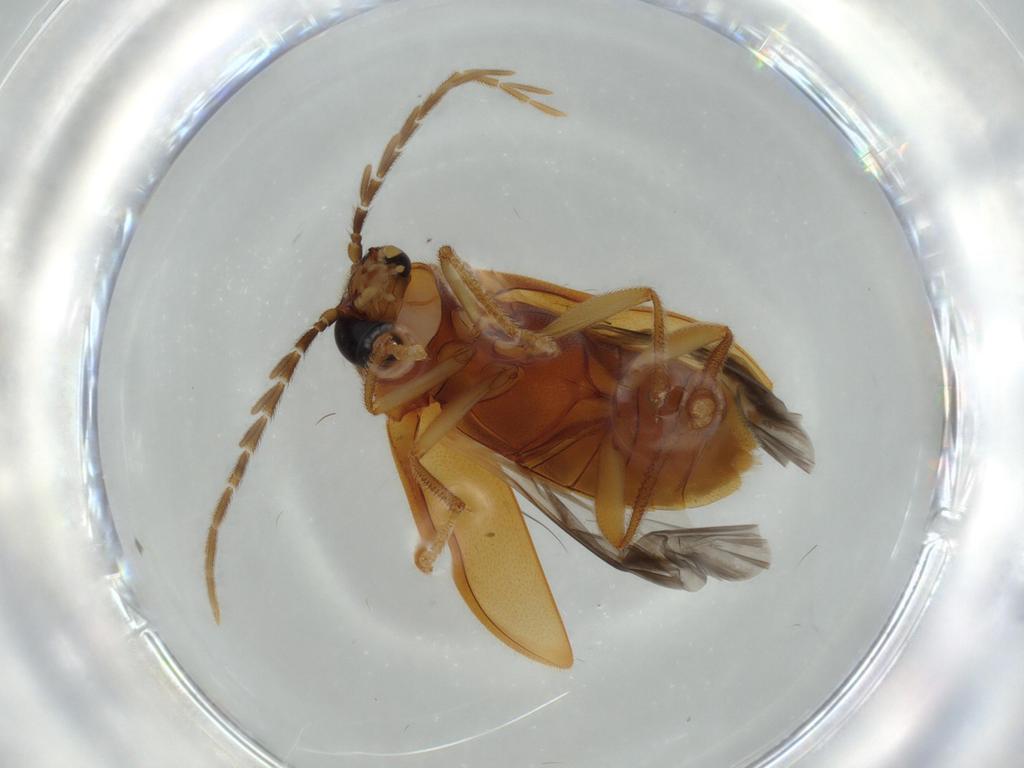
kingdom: Animalia
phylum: Arthropoda
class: Insecta
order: Coleoptera
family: Ptilodactylidae
